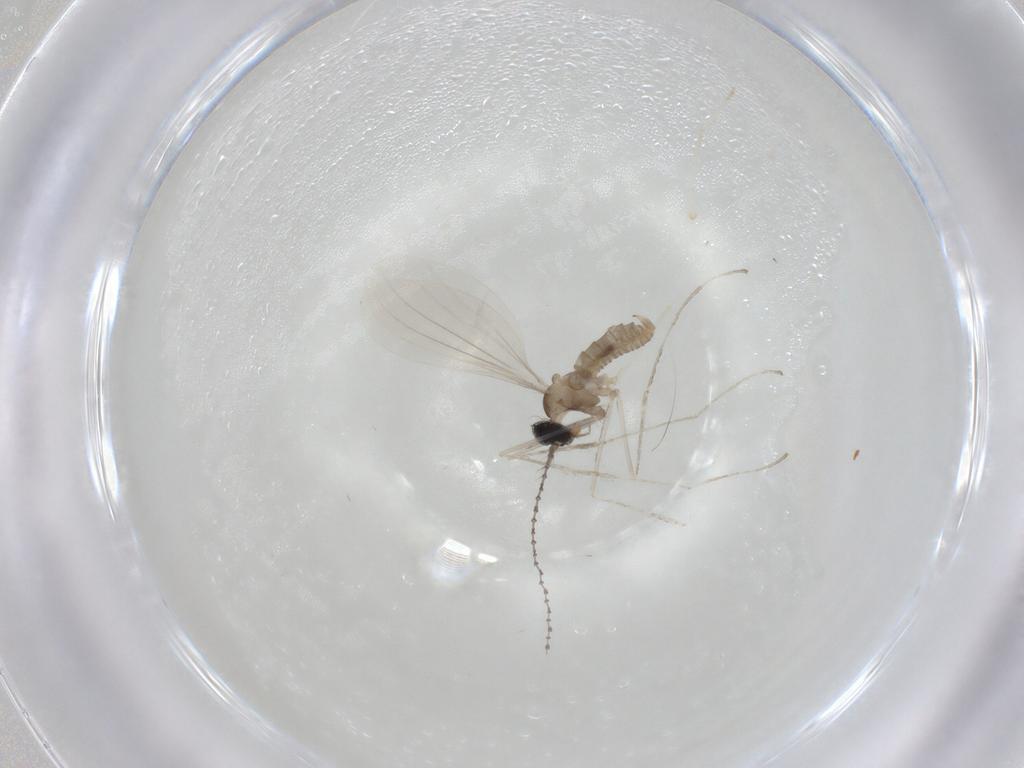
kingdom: Animalia
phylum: Arthropoda
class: Insecta
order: Diptera
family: Cecidomyiidae
